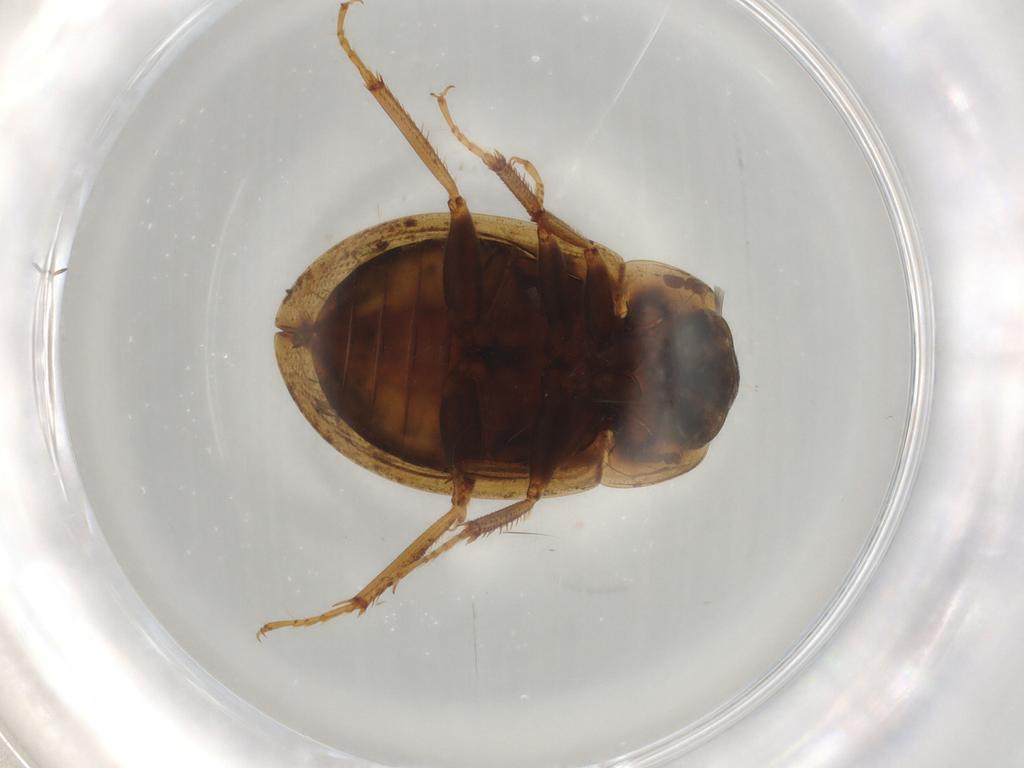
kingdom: Animalia
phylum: Arthropoda
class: Insecta
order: Coleoptera
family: Hydrophilidae
